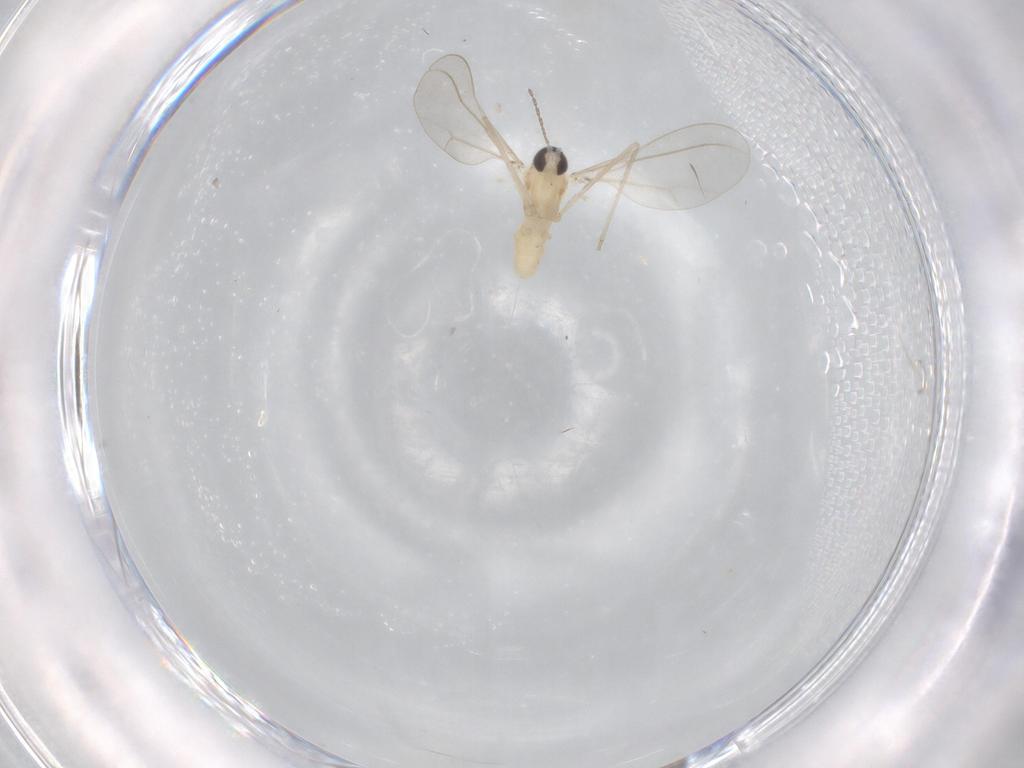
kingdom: Animalia
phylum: Arthropoda
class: Insecta
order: Diptera
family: Cecidomyiidae
